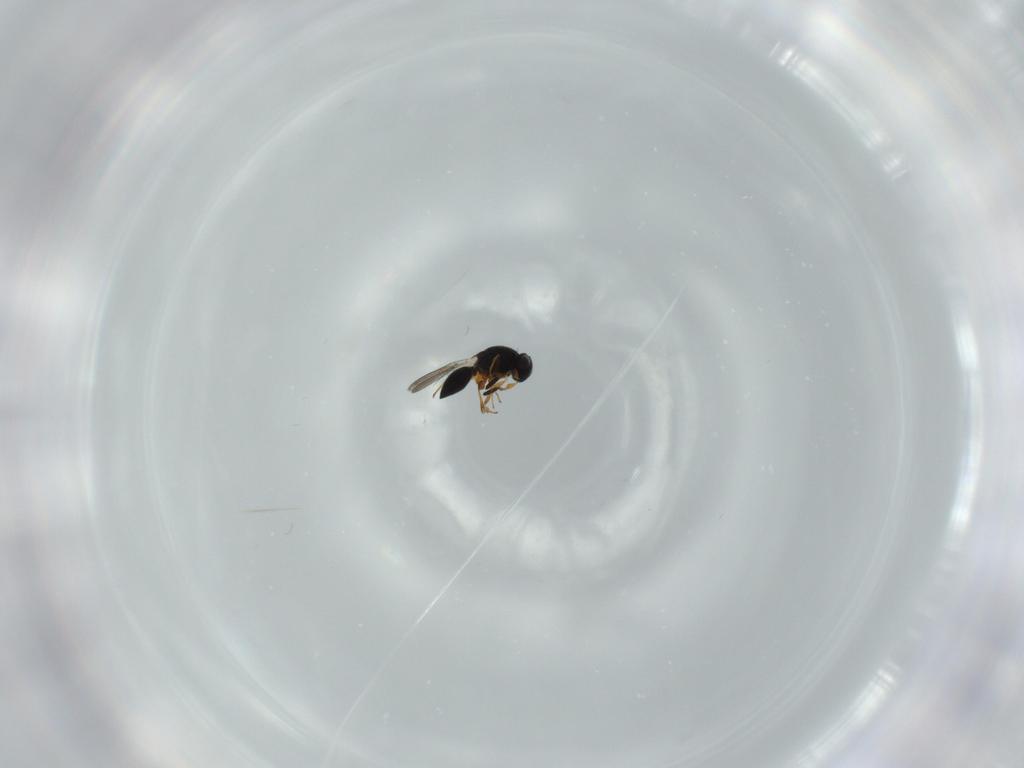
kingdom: Animalia
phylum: Arthropoda
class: Insecta
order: Hymenoptera
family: Platygastridae
